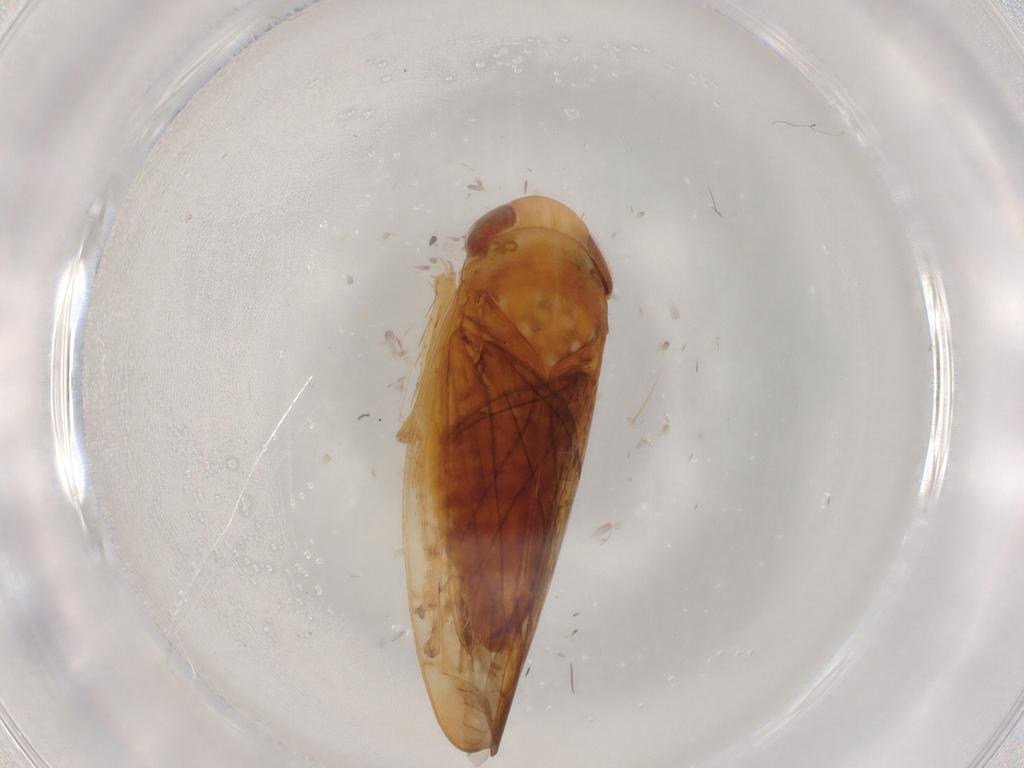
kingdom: Animalia
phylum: Arthropoda
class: Insecta
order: Hemiptera
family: Cicadellidae
